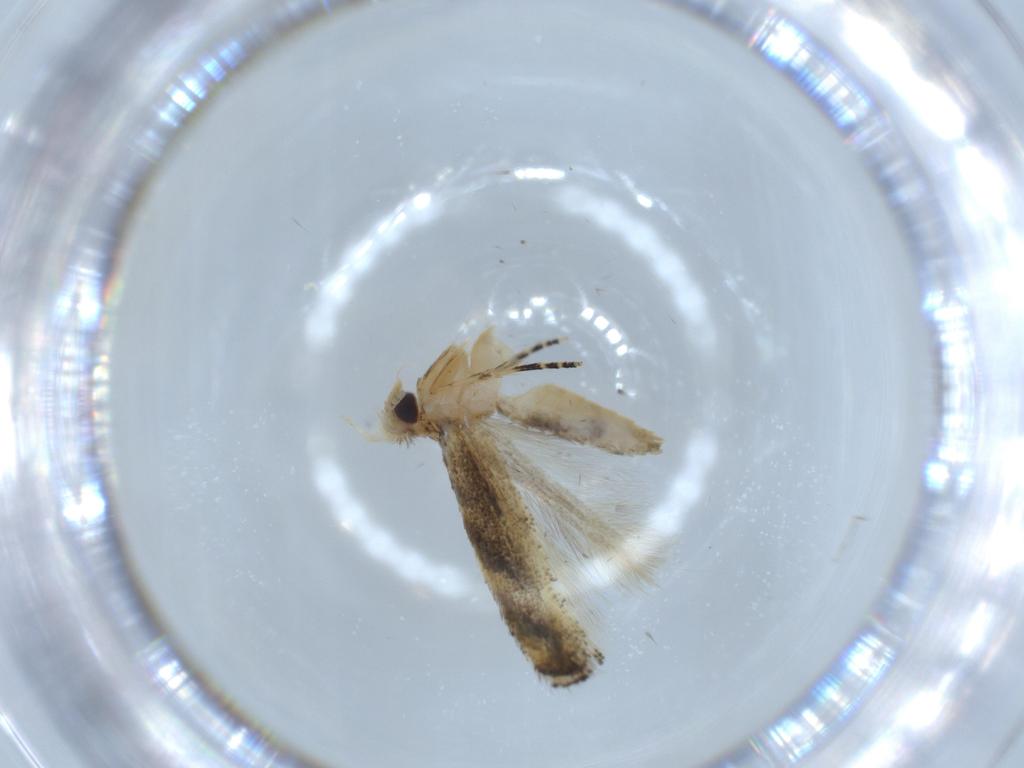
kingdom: Animalia
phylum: Arthropoda
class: Insecta
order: Lepidoptera
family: Bucculatricidae
